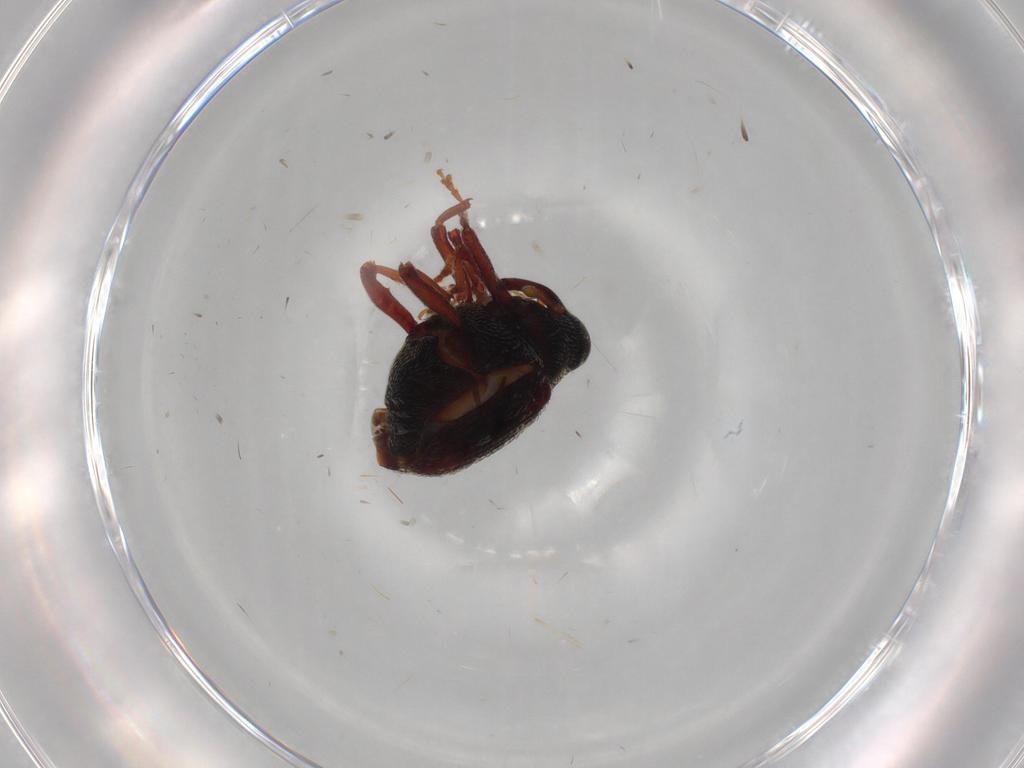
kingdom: Animalia
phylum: Arthropoda
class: Insecta
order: Coleoptera
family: Curculionidae
